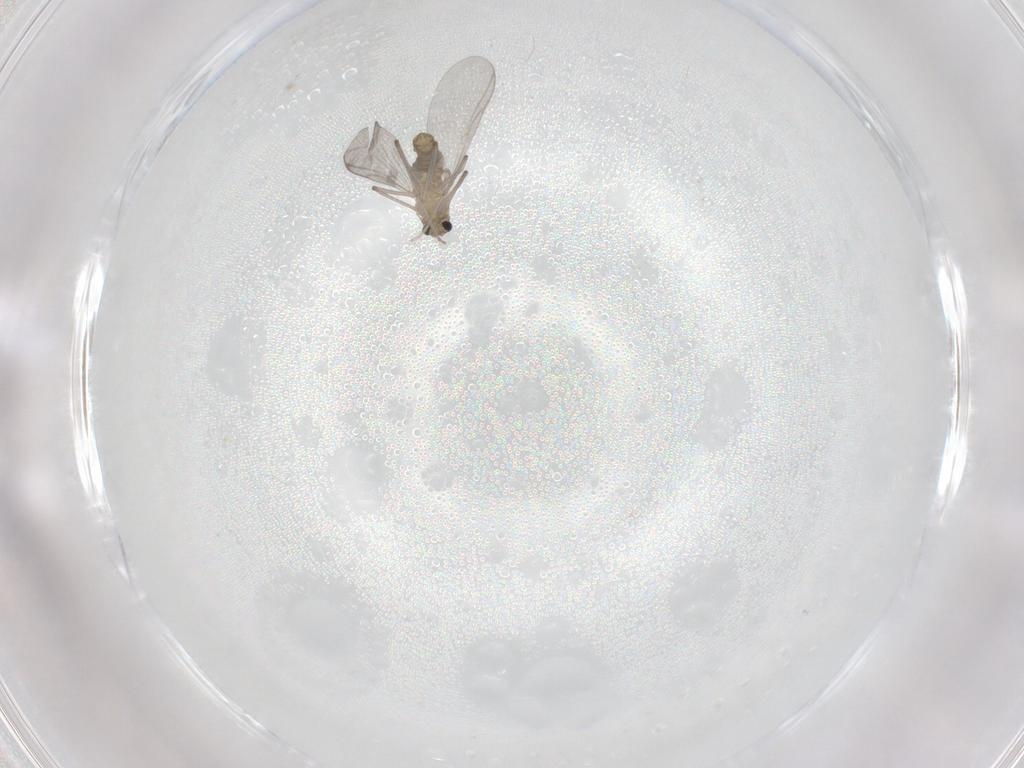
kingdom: Animalia
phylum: Arthropoda
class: Insecta
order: Diptera
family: Chironomidae
